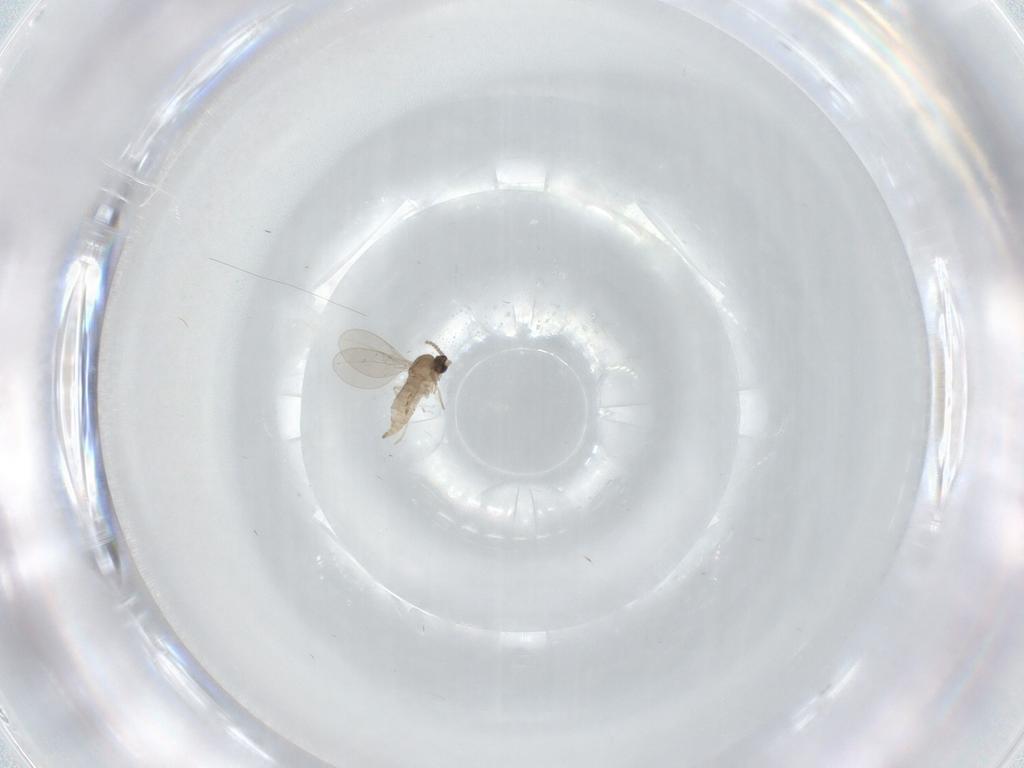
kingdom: Animalia
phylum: Arthropoda
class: Insecta
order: Diptera
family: Cecidomyiidae
